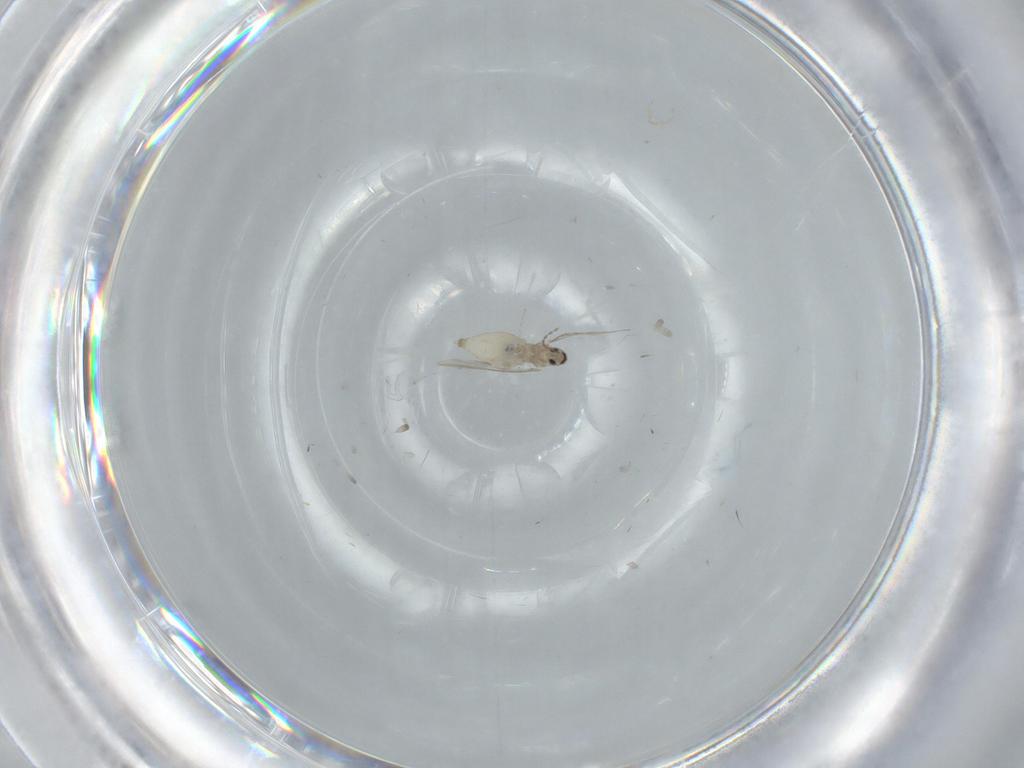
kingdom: Animalia
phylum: Arthropoda
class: Insecta
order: Diptera
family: Cecidomyiidae
